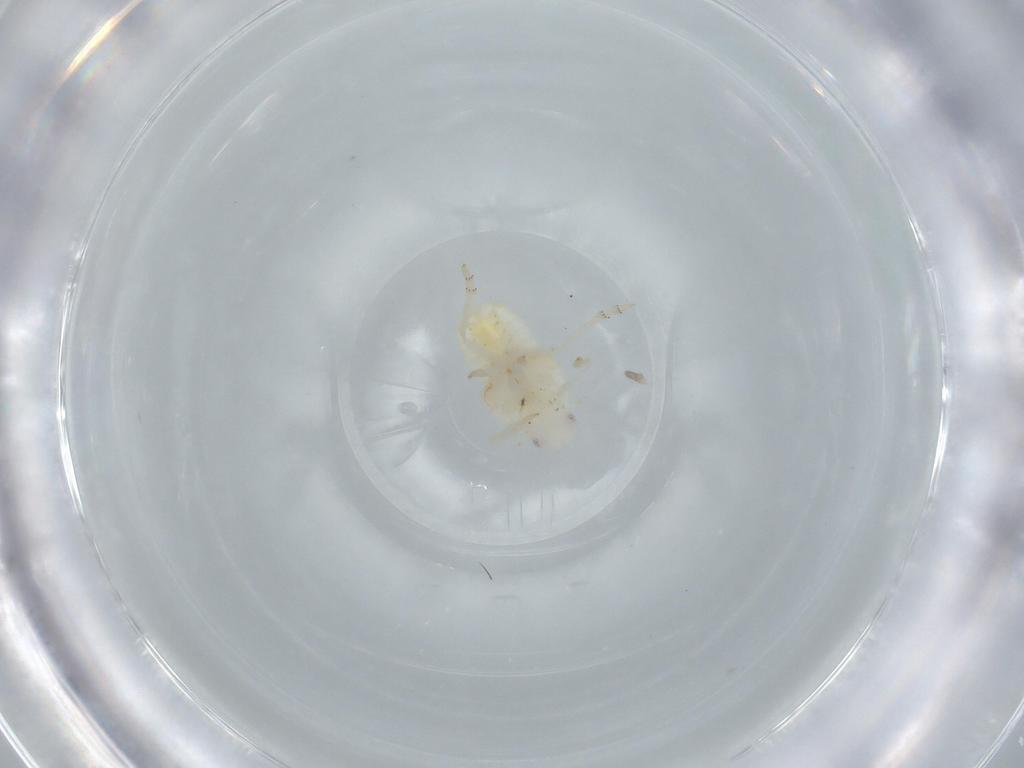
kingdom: Animalia
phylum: Arthropoda
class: Insecta
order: Hemiptera
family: Flatidae
